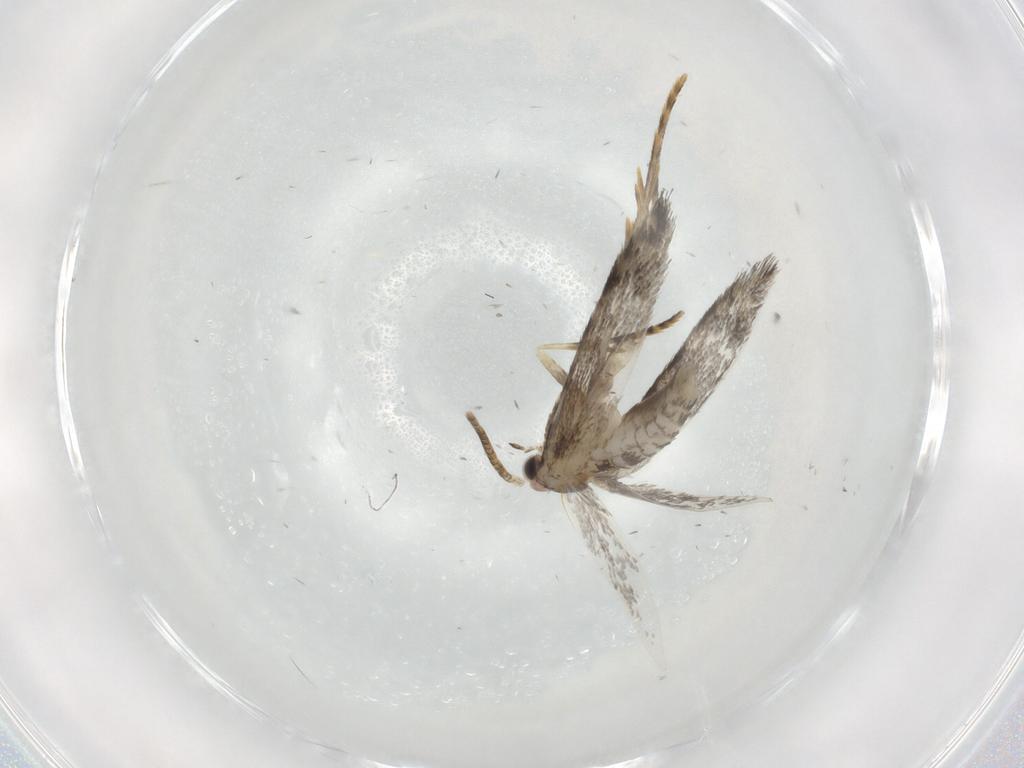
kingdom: Animalia
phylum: Arthropoda
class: Insecta
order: Lepidoptera
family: Tineidae
